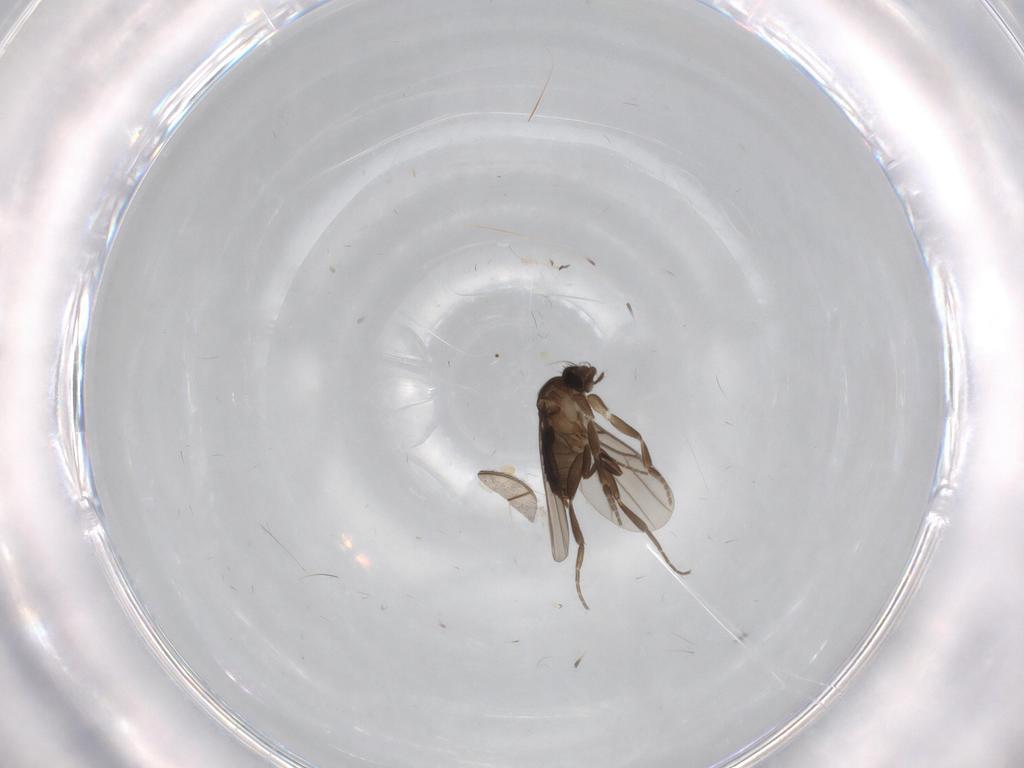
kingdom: Animalia
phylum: Arthropoda
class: Insecta
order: Diptera
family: Phoridae
